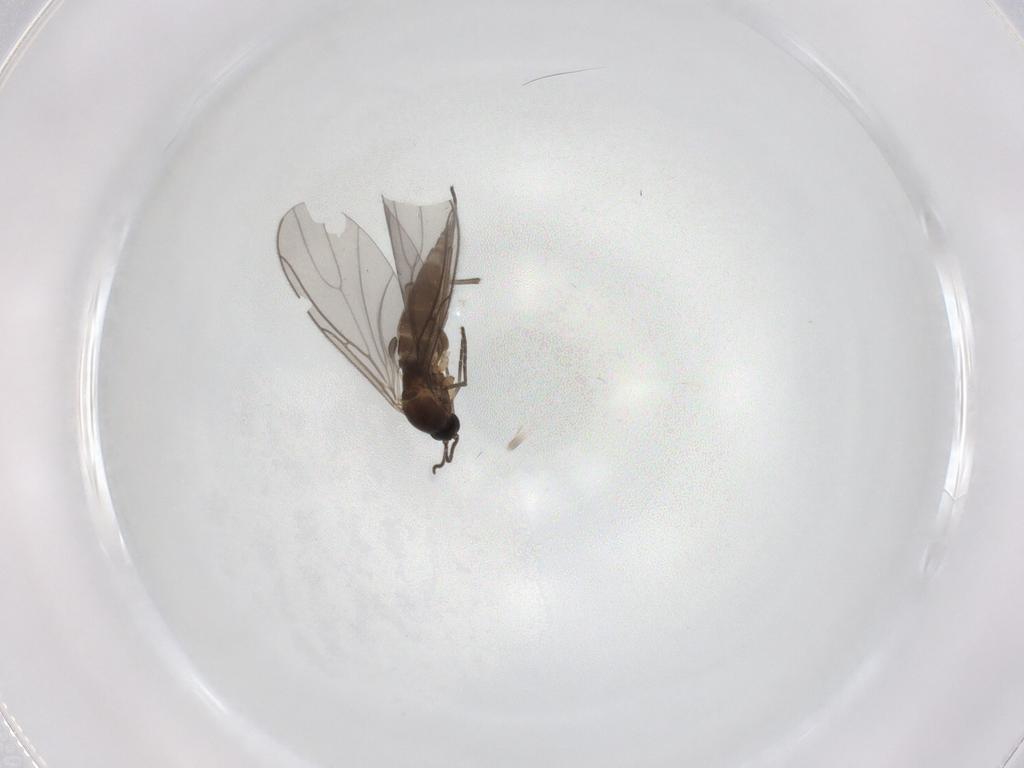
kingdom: Animalia
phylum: Arthropoda
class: Insecta
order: Diptera
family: Sciaridae
